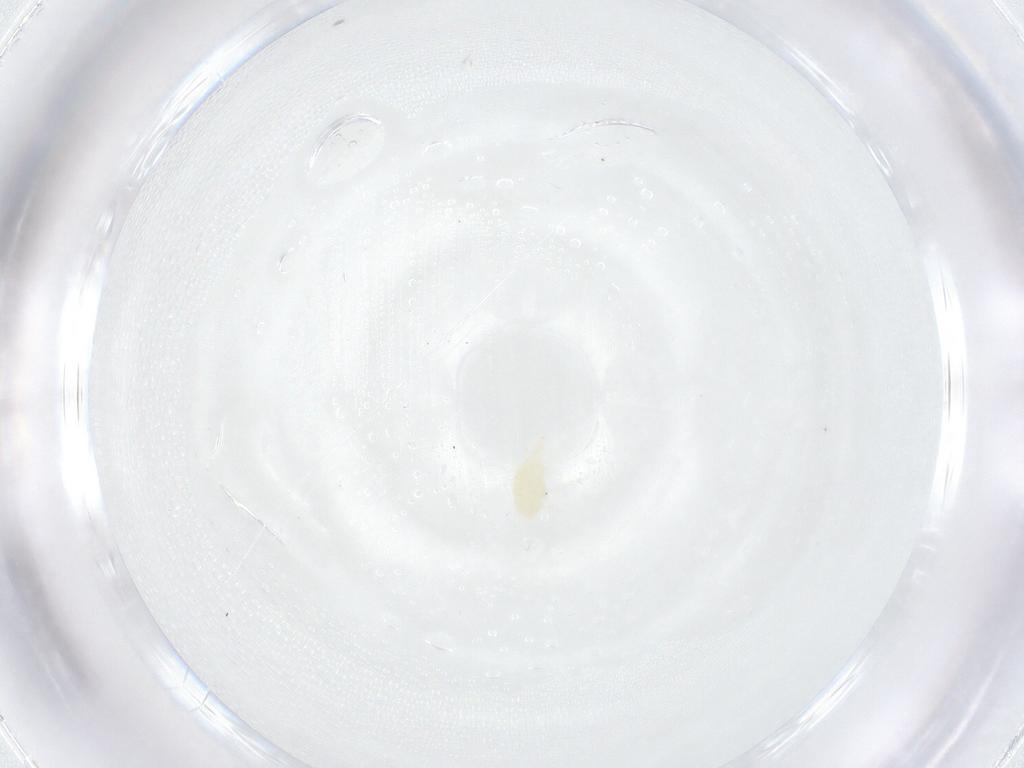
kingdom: Animalia
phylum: Arthropoda
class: Arachnida
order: Trombidiformes
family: Stigmaeidae
